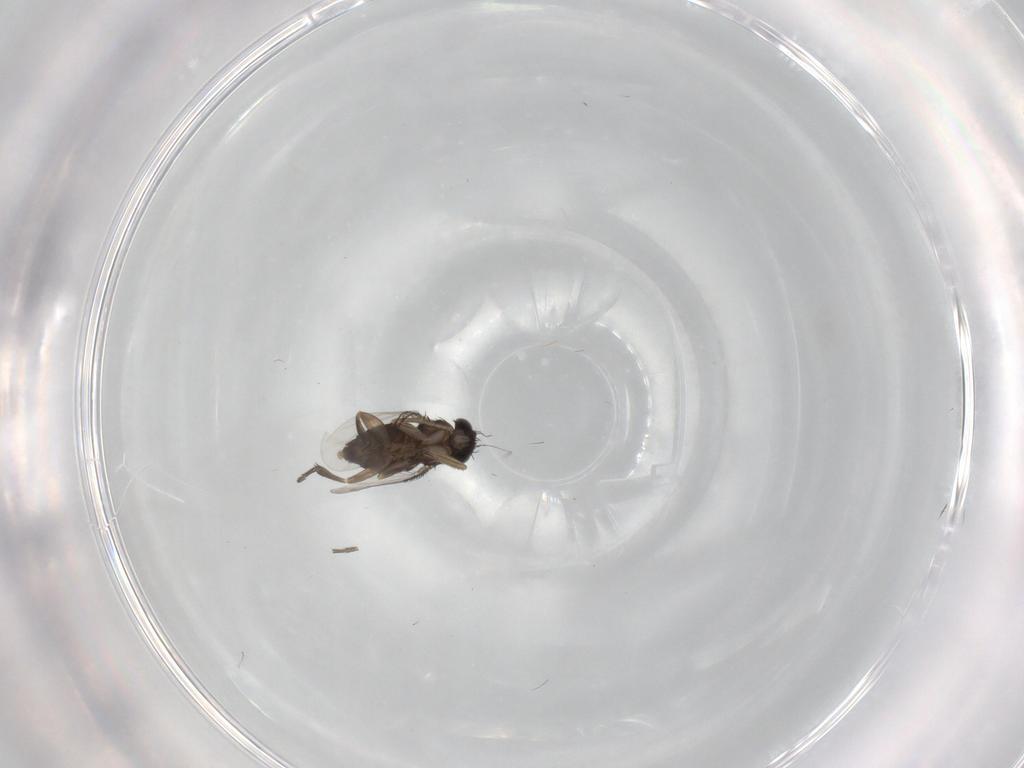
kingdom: Animalia
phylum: Arthropoda
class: Insecta
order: Diptera
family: Phoridae
